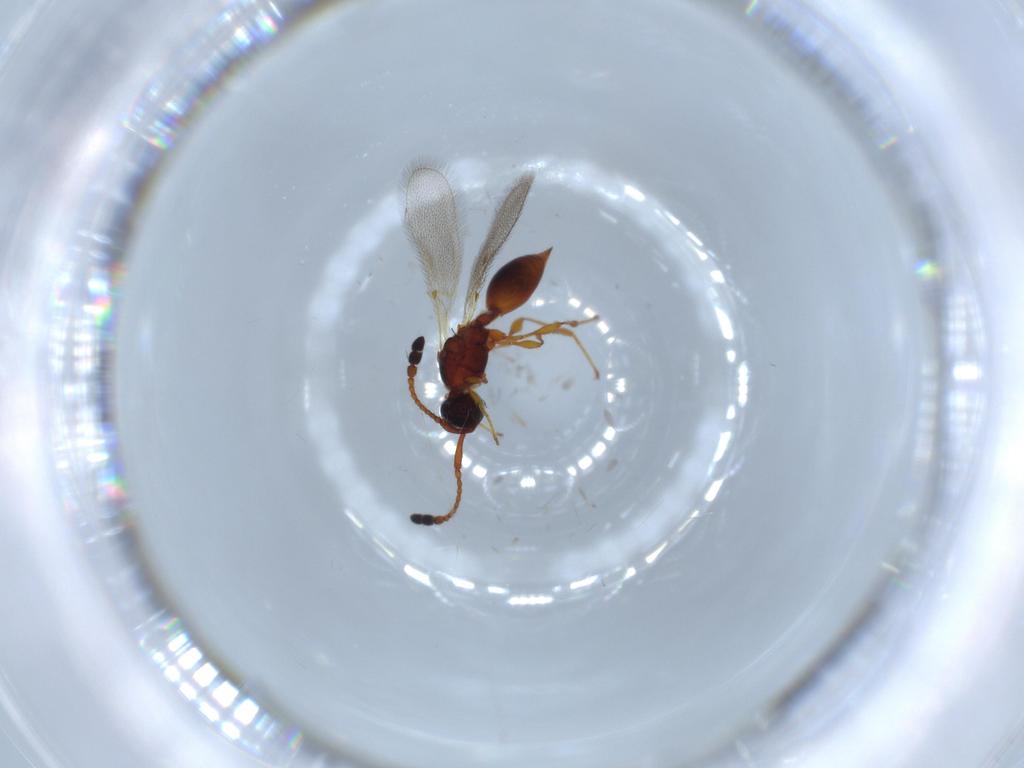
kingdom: Animalia
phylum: Arthropoda
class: Insecta
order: Hymenoptera
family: Diapriidae
